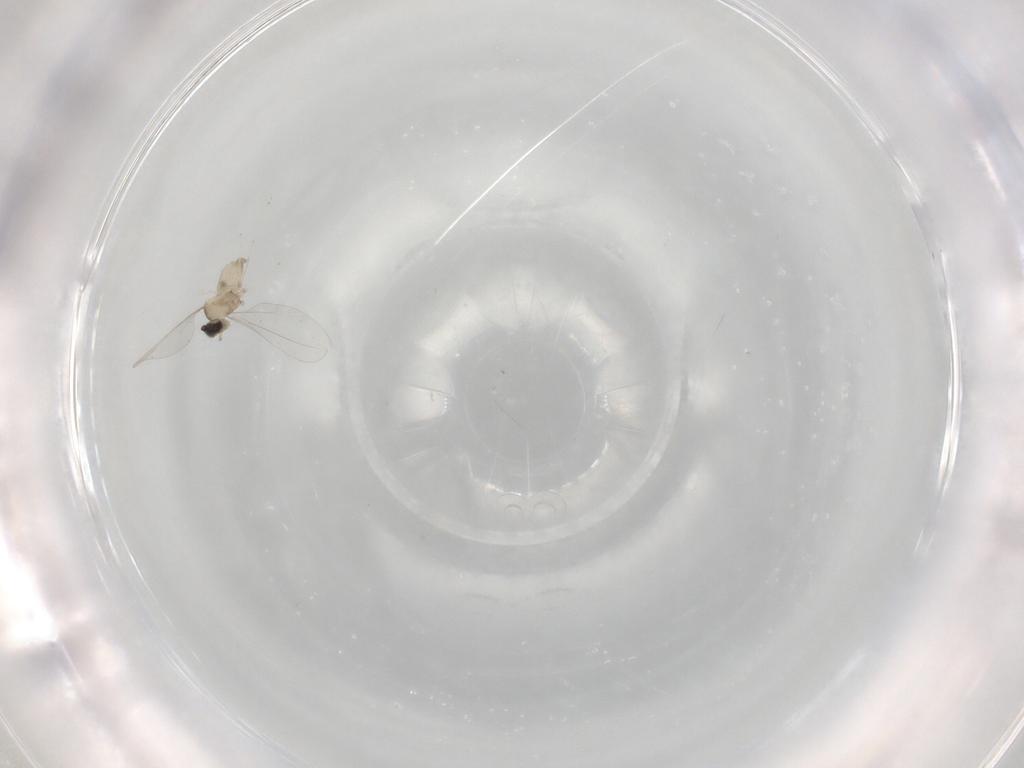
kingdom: Animalia
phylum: Arthropoda
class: Insecta
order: Diptera
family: Cecidomyiidae
